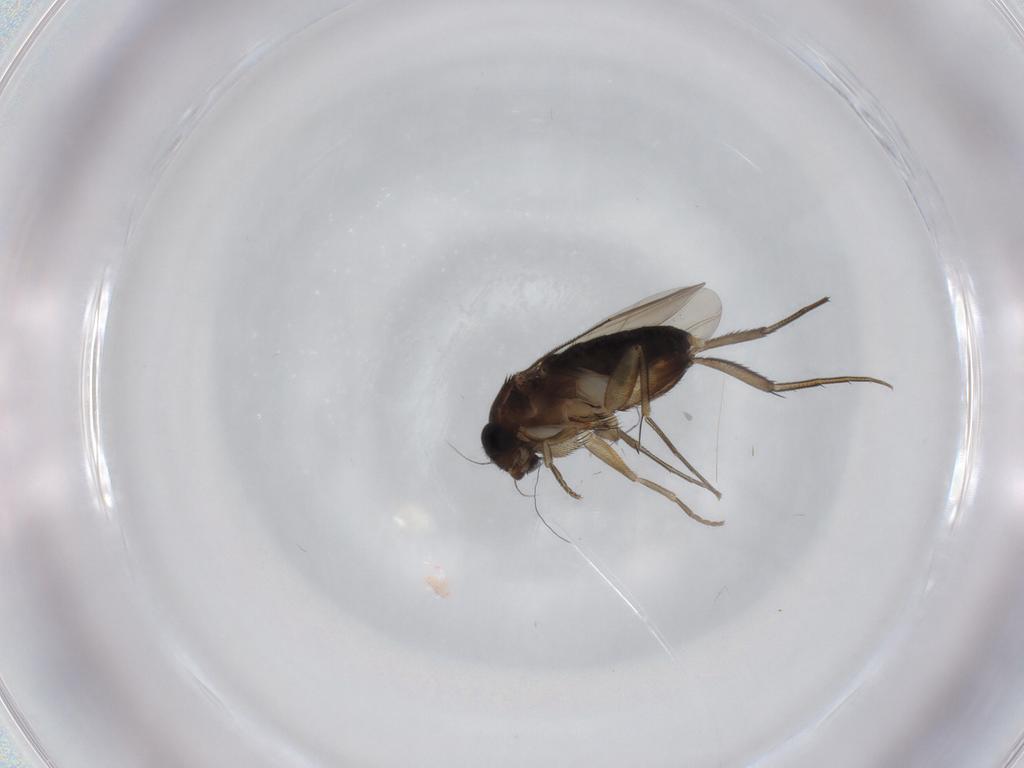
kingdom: Animalia
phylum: Arthropoda
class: Insecta
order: Diptera
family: Phoridae
